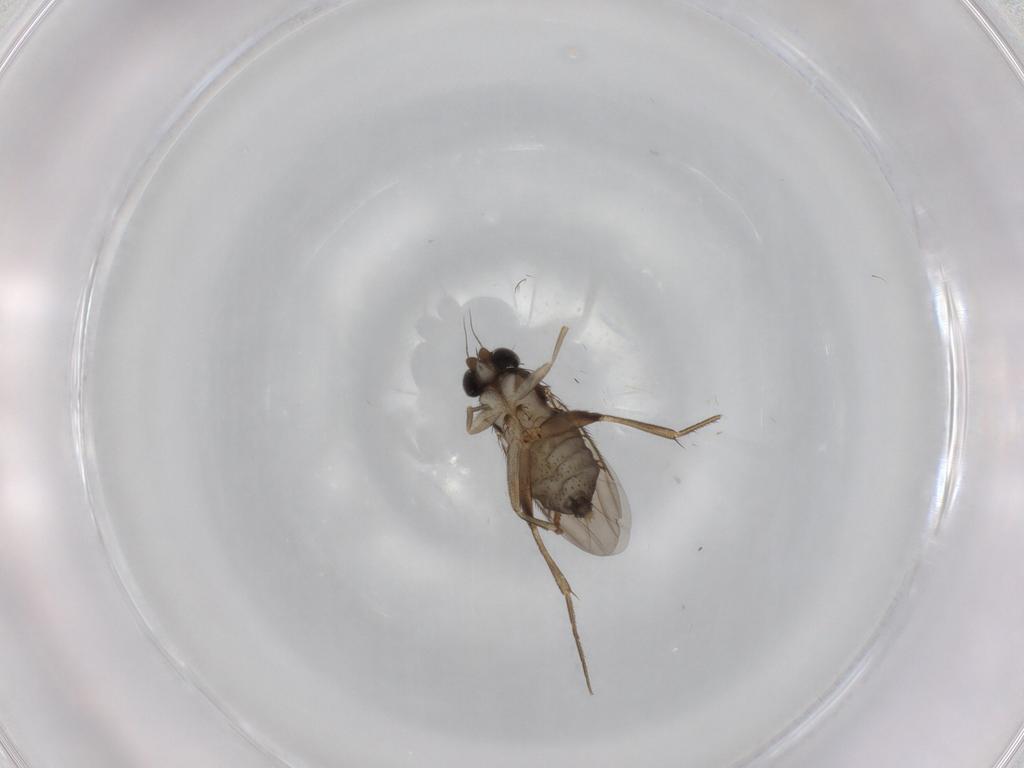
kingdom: Animalia
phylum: Arthropoda
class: Insecta
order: Diptera
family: Phoridae
